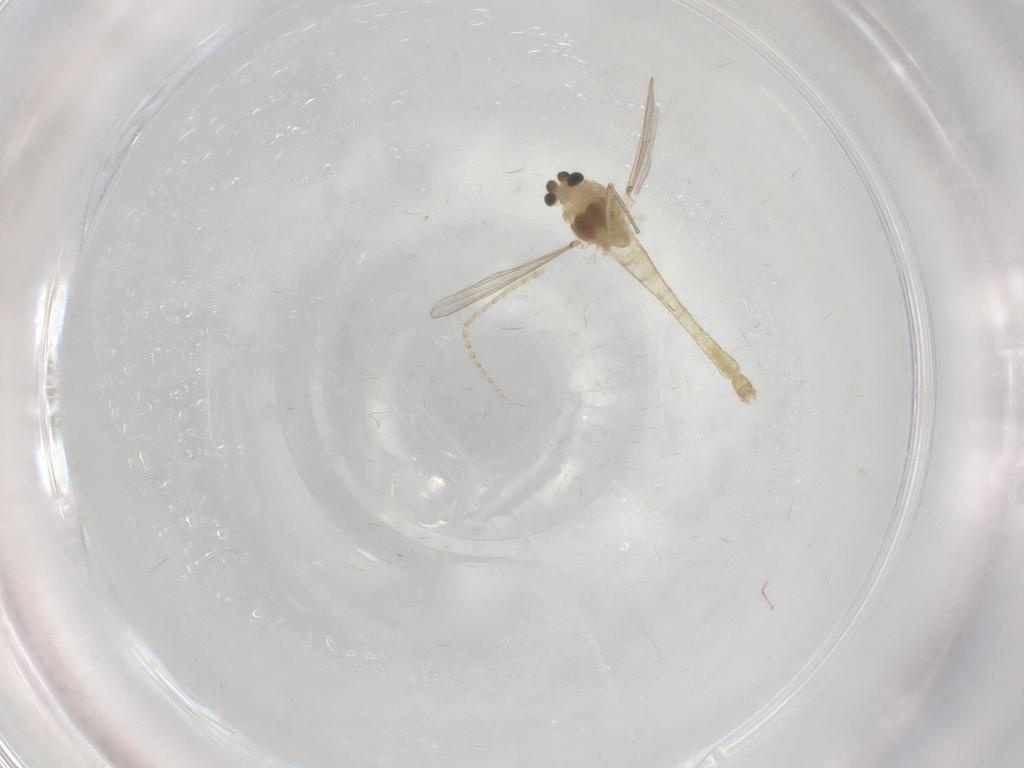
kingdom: Animalia
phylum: Arthropoda
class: Insecta
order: Diptera
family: Chironomidae
